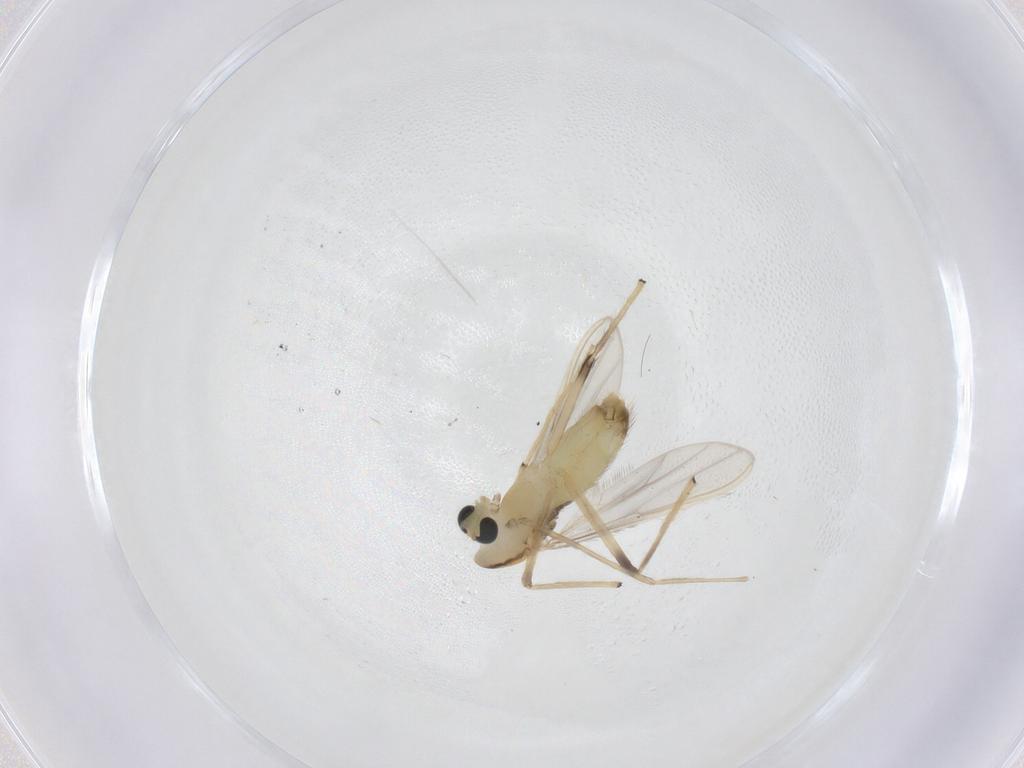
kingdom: Animalia
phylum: Arthropoda
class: Insecta
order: Diptera
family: Chironomidae
